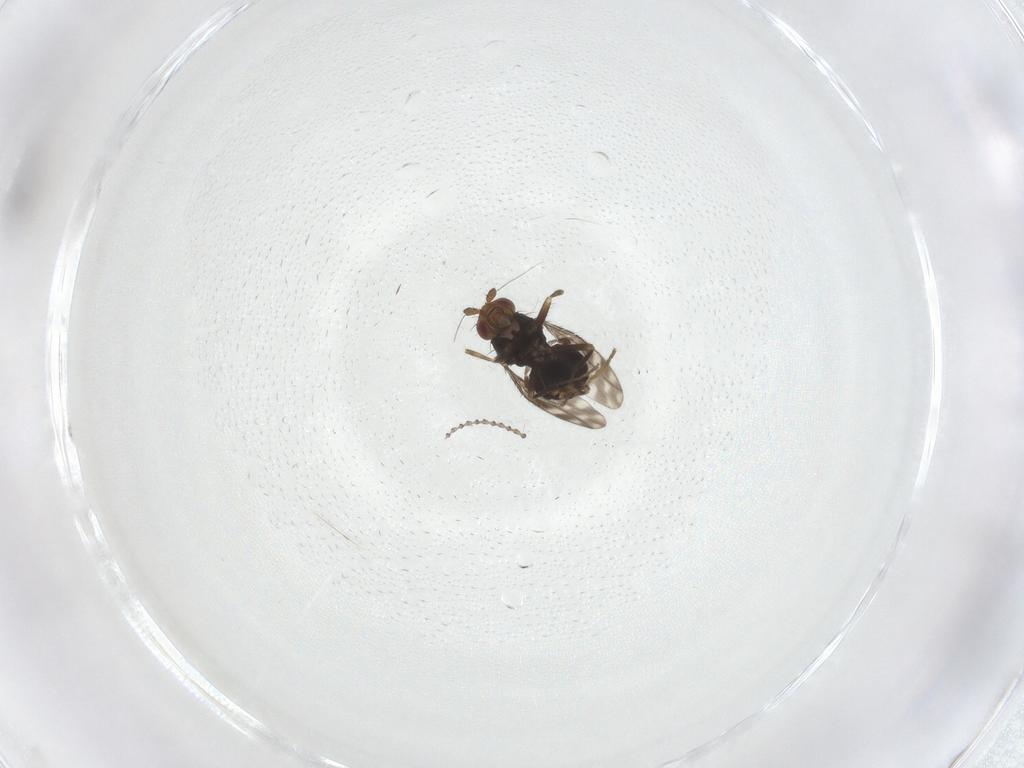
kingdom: Animalia
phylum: Arthropoda
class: Insecta
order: Diptera
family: Sphaeroceridae
